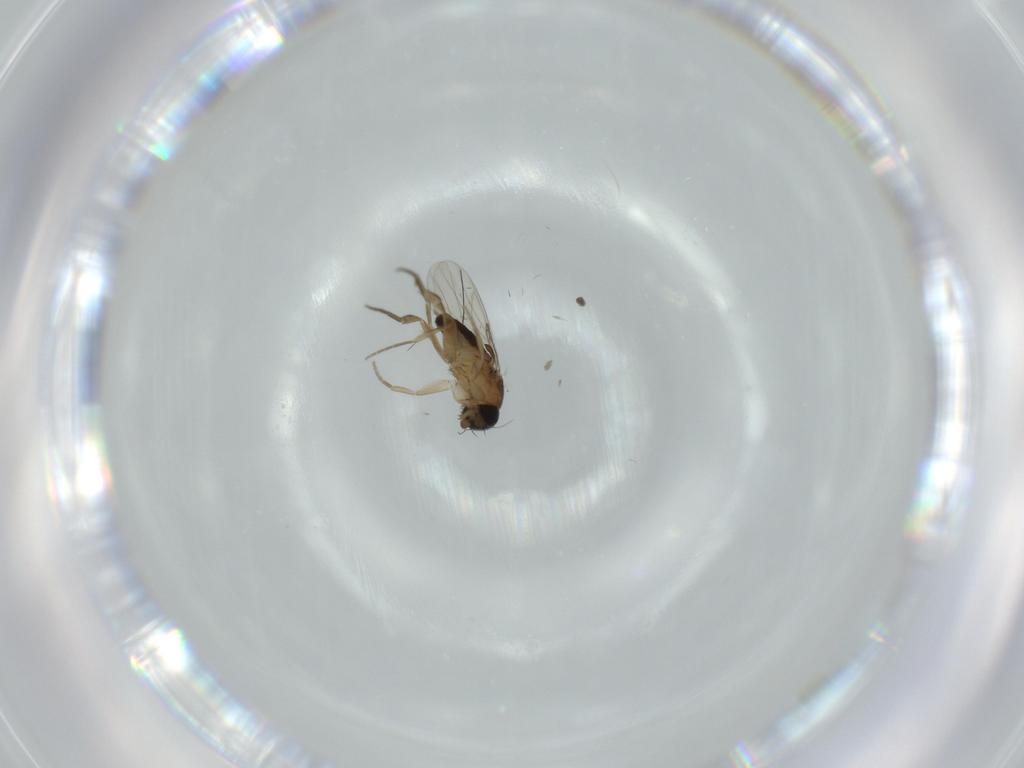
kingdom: Animalia
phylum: Arthropoda
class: Insecta
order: Diptera
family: Phoridae
